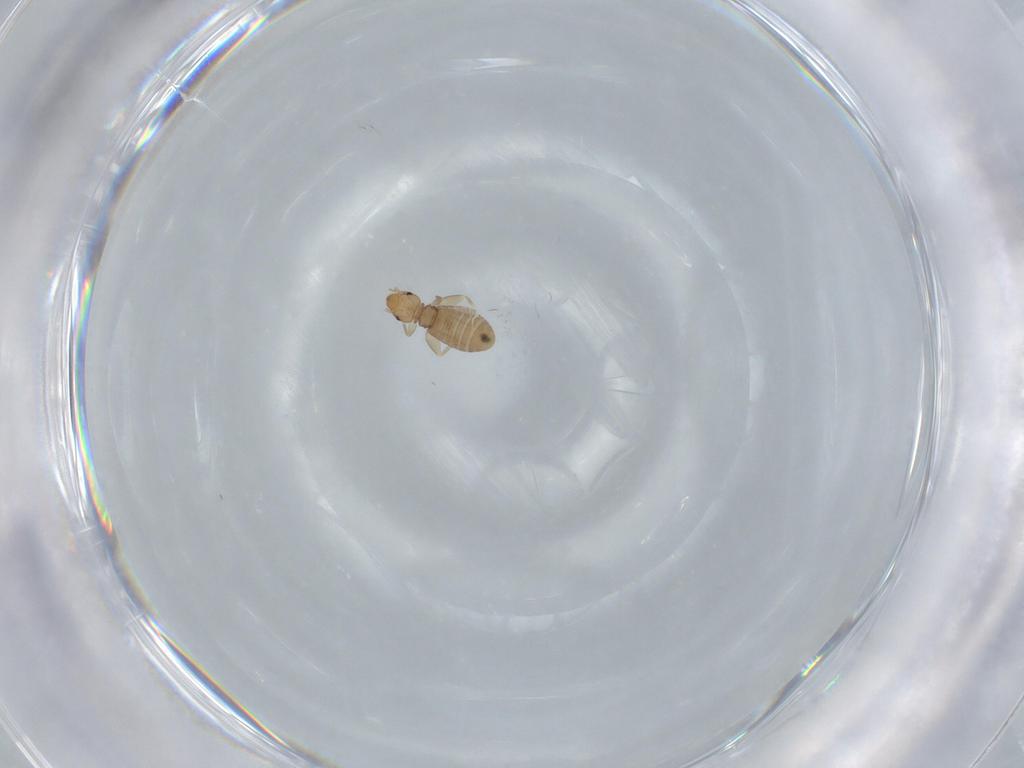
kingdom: Animalia
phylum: Arthropoda
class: Insecta
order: Psocodea
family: Liposcelididae
